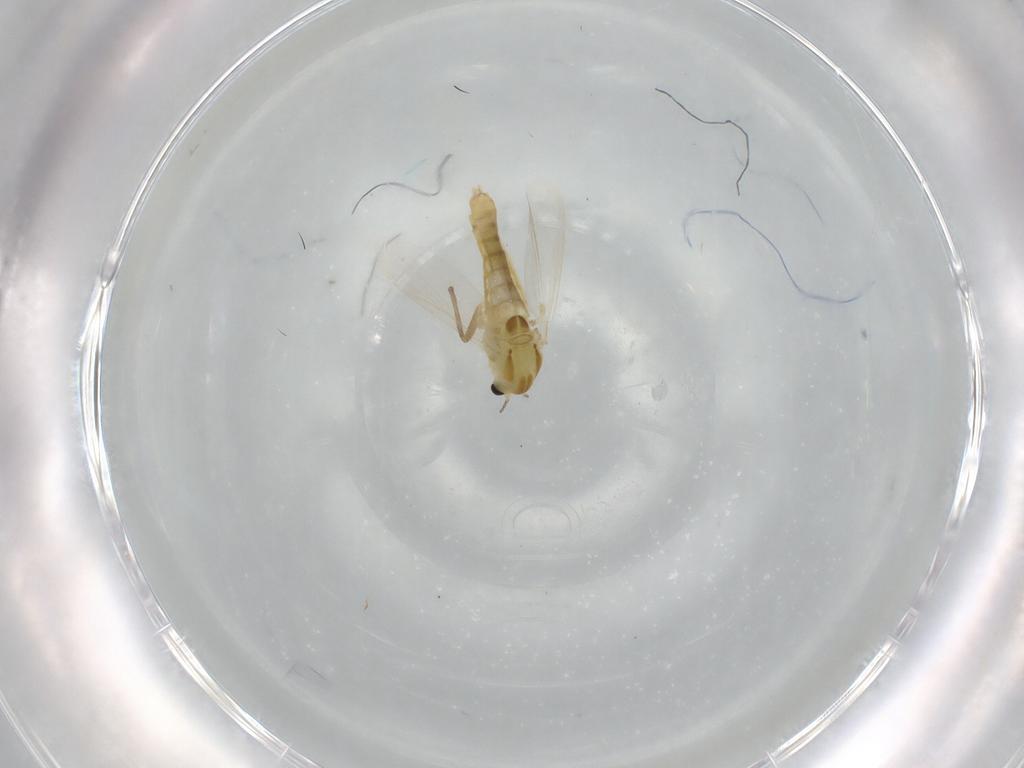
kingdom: Animalia
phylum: Arthropoda
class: Insecta
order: Diptera
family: Chironomidae
